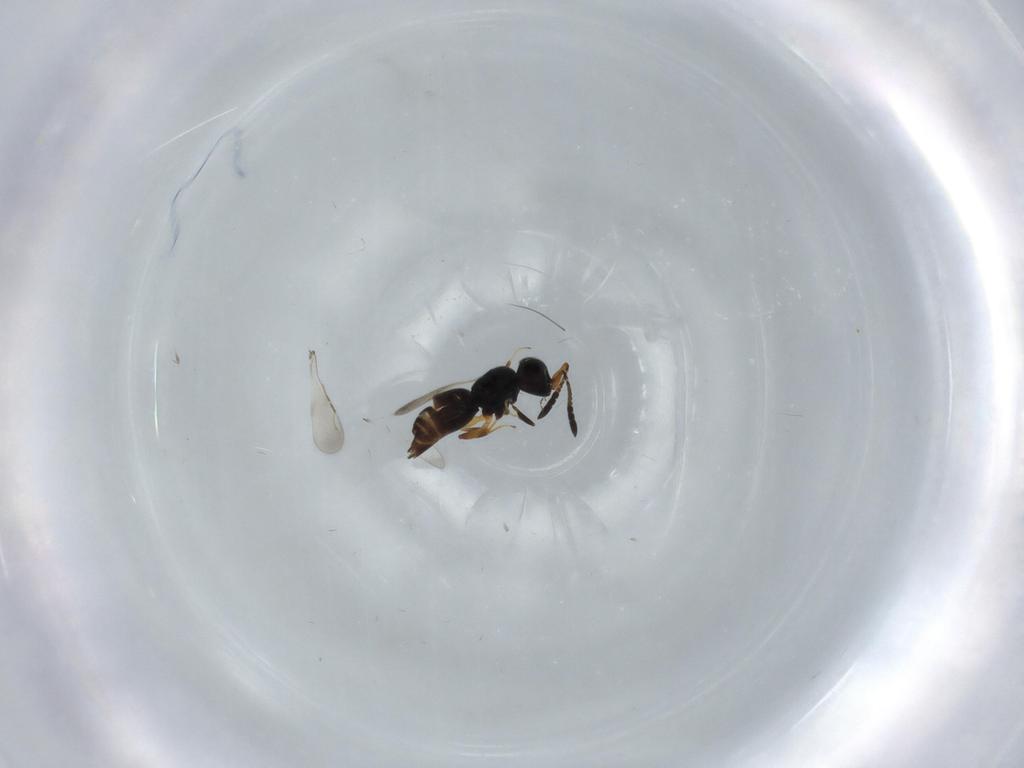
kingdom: Animalia
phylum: Arthropoda
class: Insecta
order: Hymenoptera
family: Ceraphronidae
